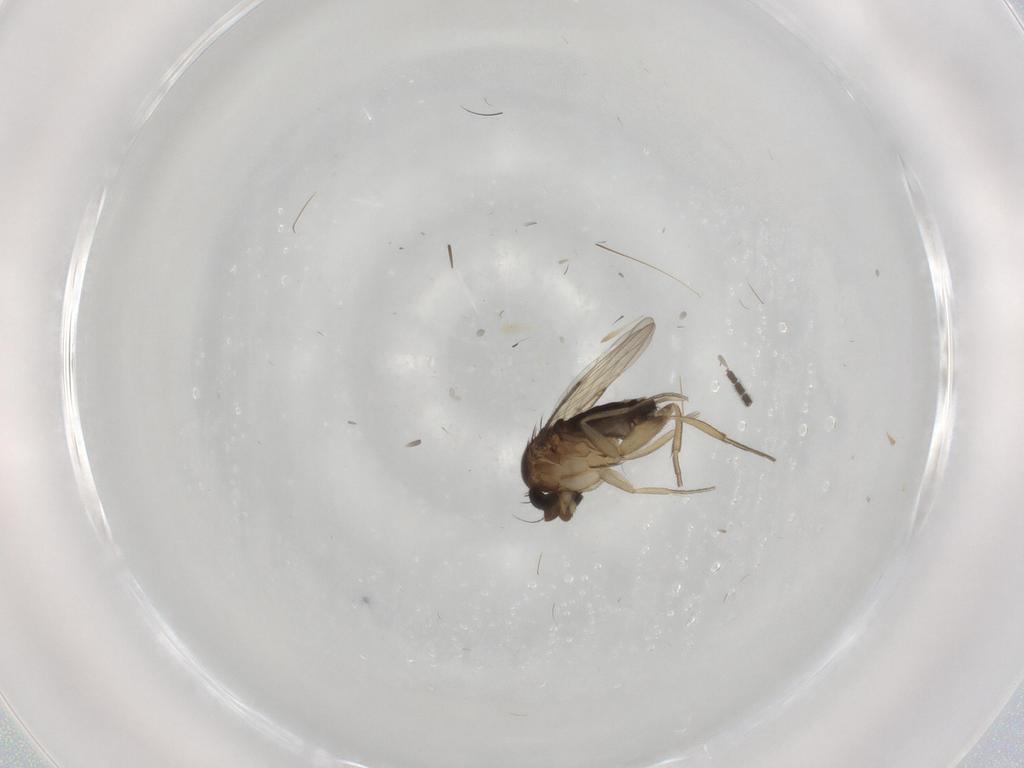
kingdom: Animalia
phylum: Arthropoda
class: Insecta
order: Diptera
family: Phoridae
